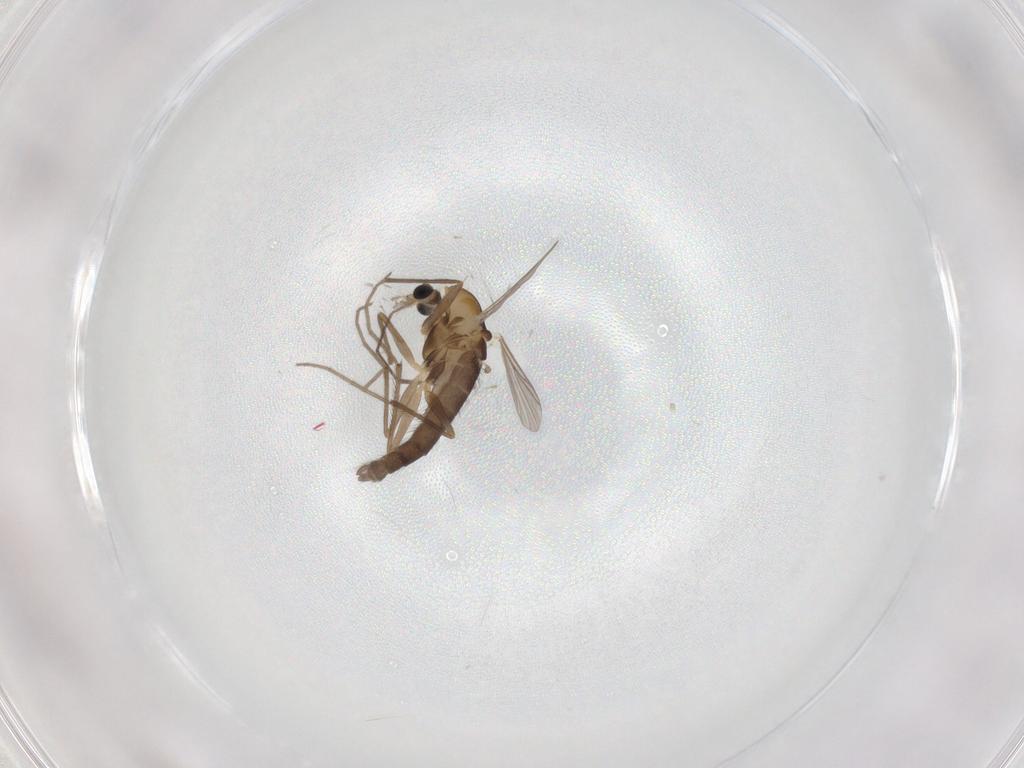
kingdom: Animalia
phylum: Arthropoda
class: Insecta
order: Diptera
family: Chironomidae
